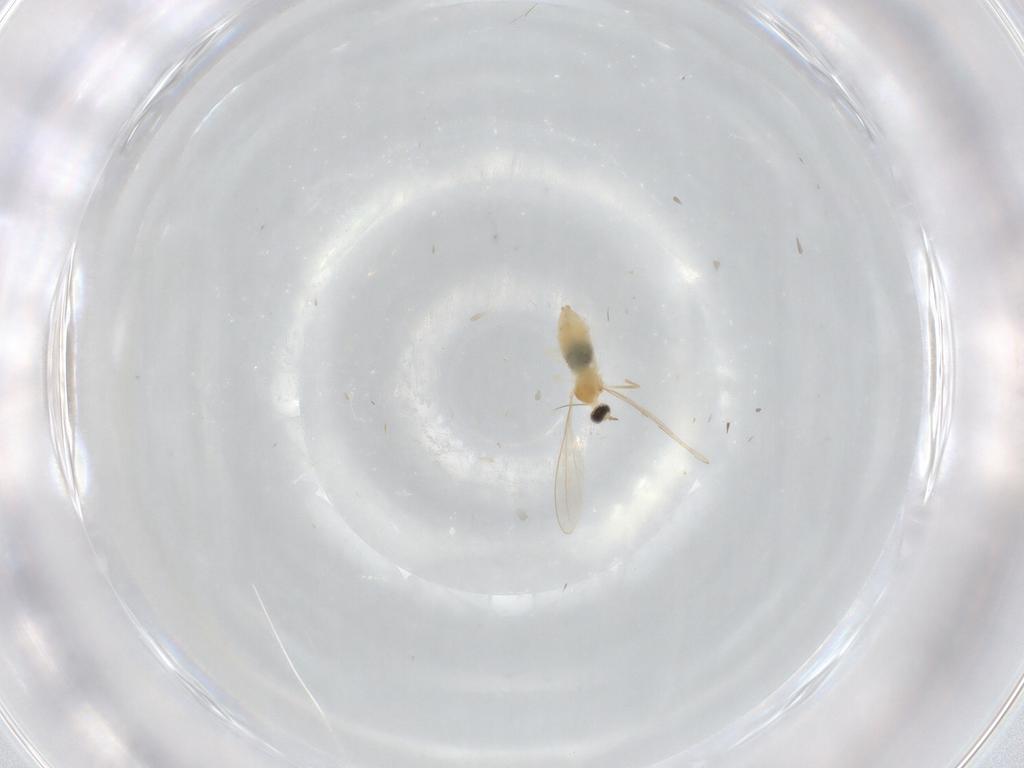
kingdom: Animalia
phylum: Arthropoda
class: Insecta
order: Diptera
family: Cecidomyiidae
